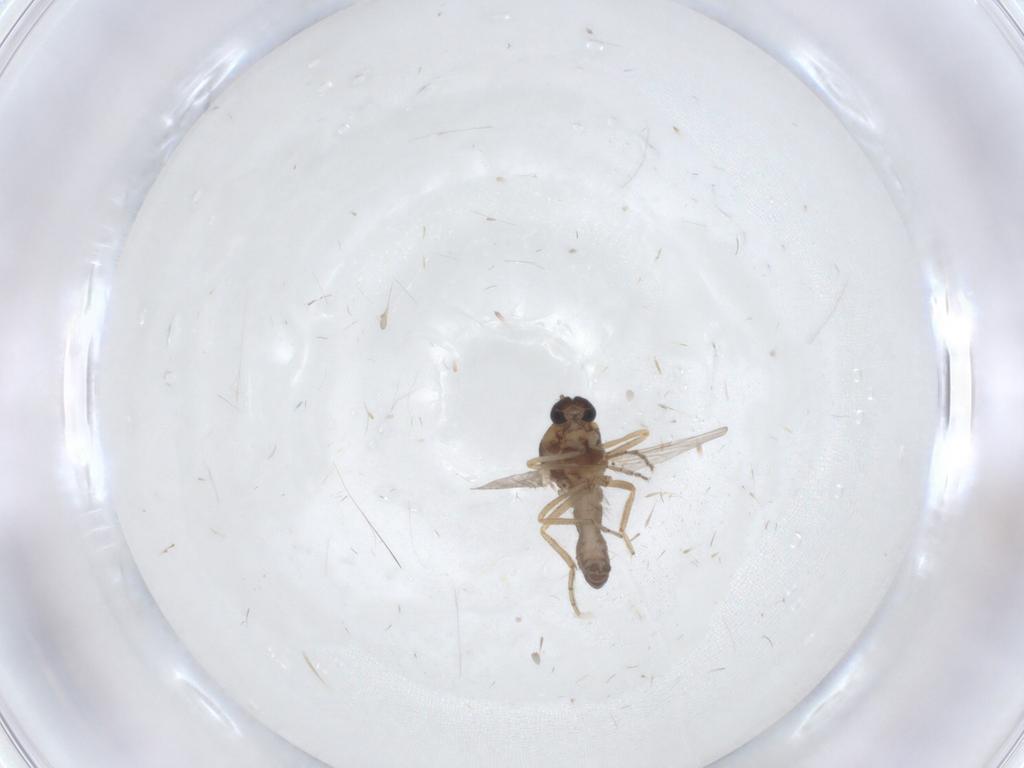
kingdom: Animalia
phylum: Arthropoda
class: Insecta
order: Diptera
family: Ceratopogonidae
